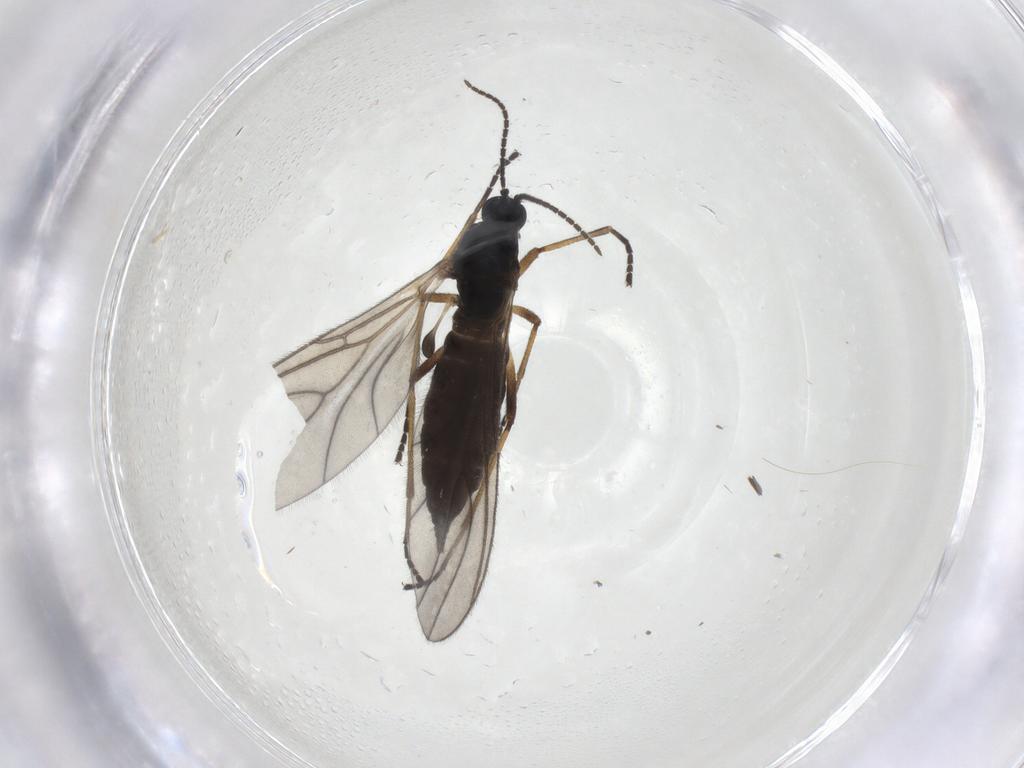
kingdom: Animalia
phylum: Arthropoda
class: Insecta
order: Diptera
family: Sciaridae
